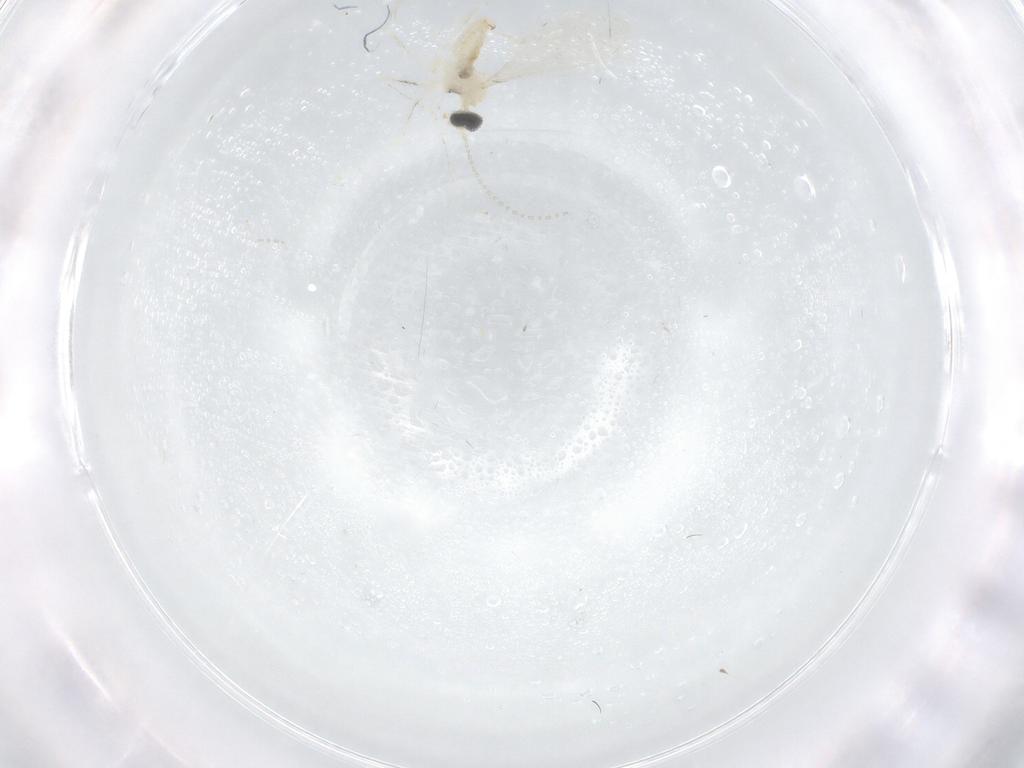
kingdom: Animalia
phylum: Arthropoda
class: Insecta
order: Diptera
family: Cecidomyiidae
